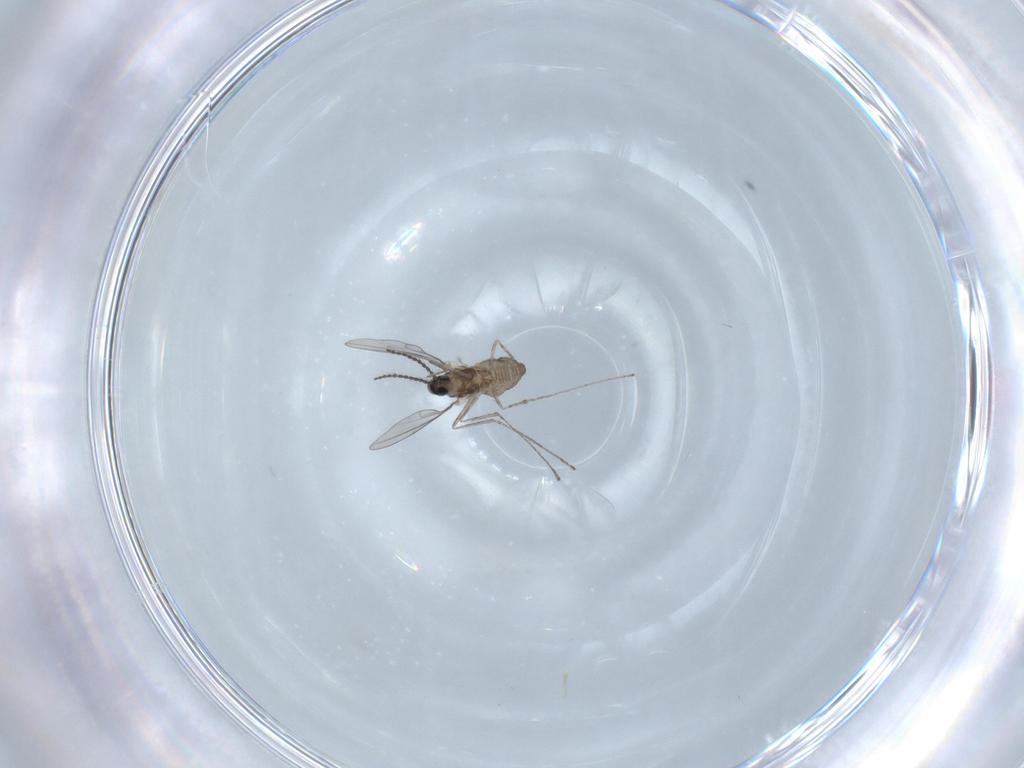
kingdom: Animalia
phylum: Arthropoda
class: Insecta
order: Diptera
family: Cecidomyiidae
